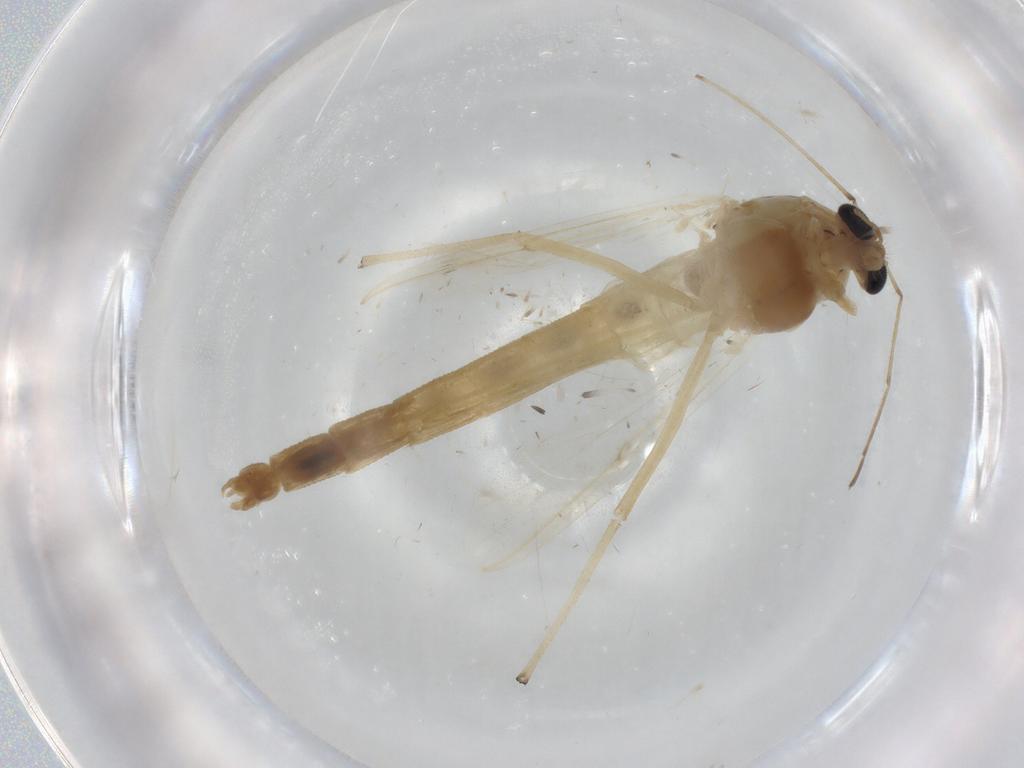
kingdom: Animalia
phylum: Arthropoda
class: Insecta
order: Diptera
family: Chironomidae
